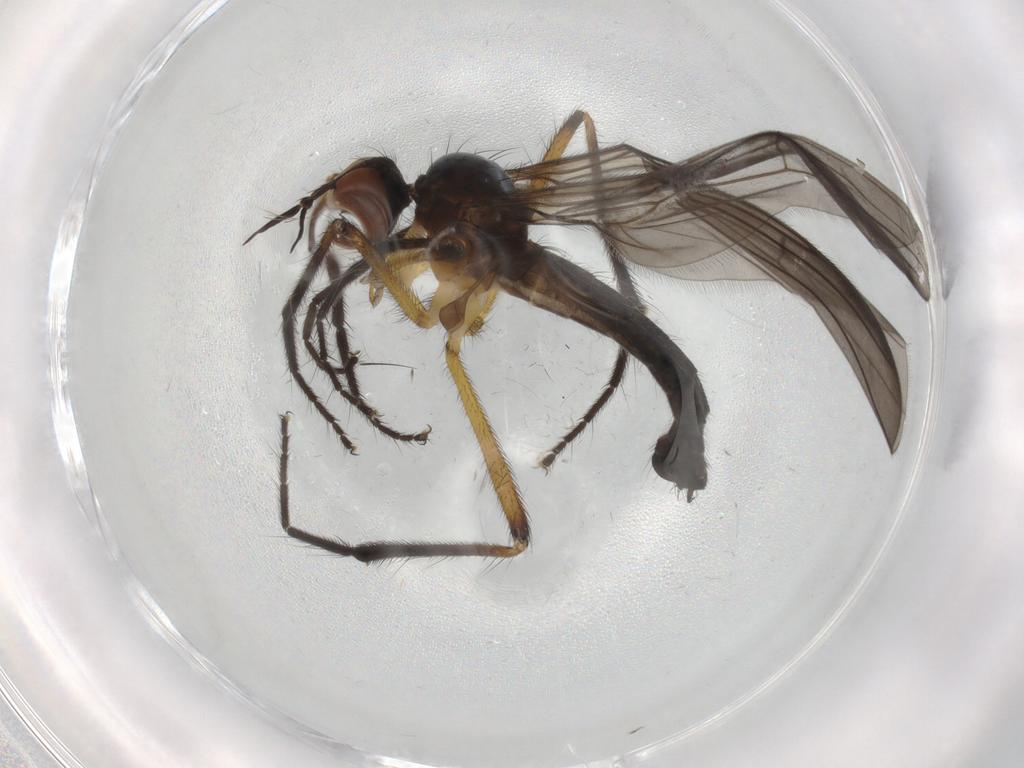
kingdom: Animalia
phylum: Arthropoda
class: Insecta
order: Diptera
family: Empididae
